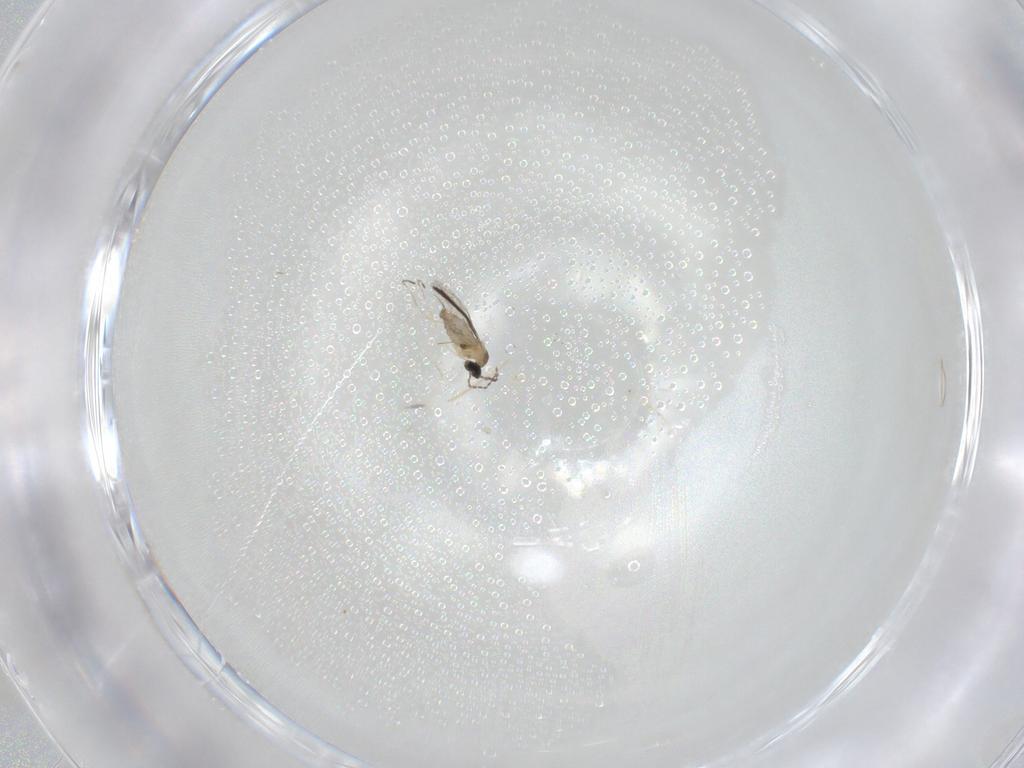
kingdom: Animalia
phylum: Arthropoda
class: Insecta
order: Diptera
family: Cecidomyiidae
